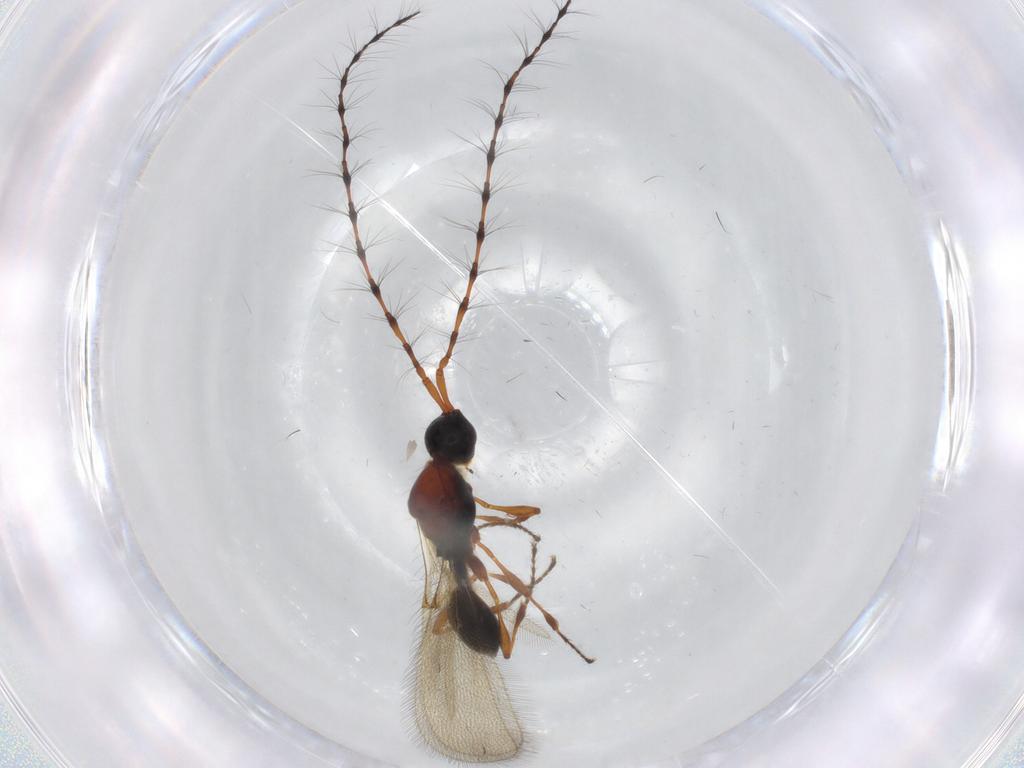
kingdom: Animalia
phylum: Arthropoda
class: Insecta
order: Hymenoptera
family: Diapriidae
